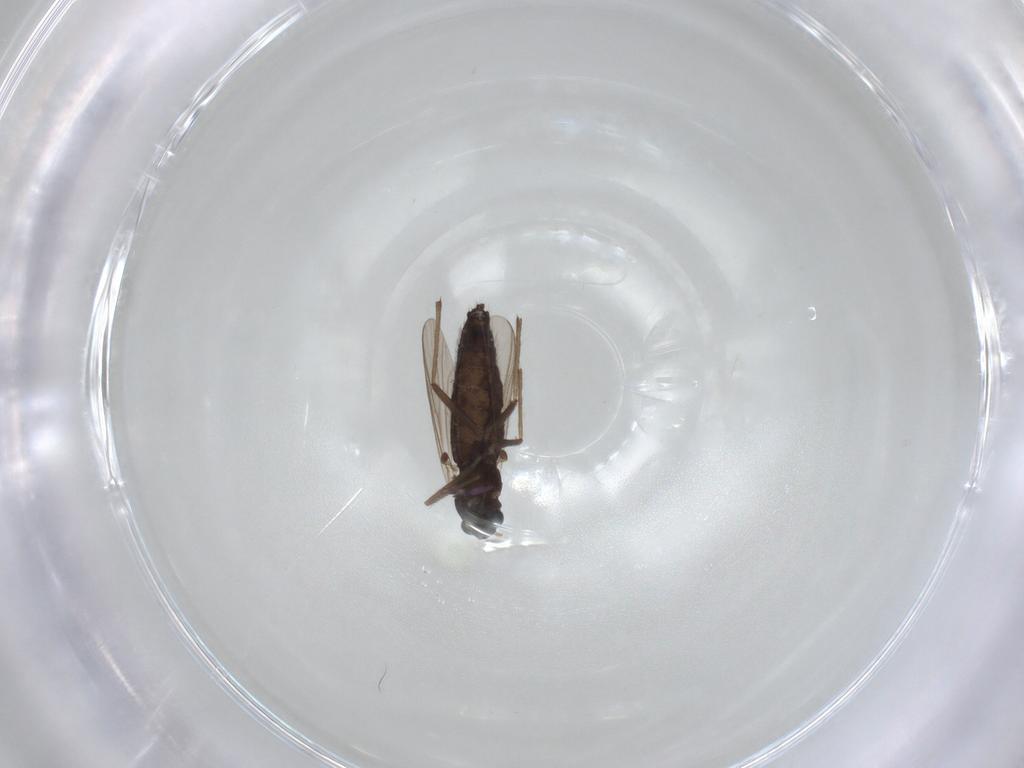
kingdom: Animalia
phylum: Arthropoda
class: Insecta
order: Diptera
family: Chironomidae
